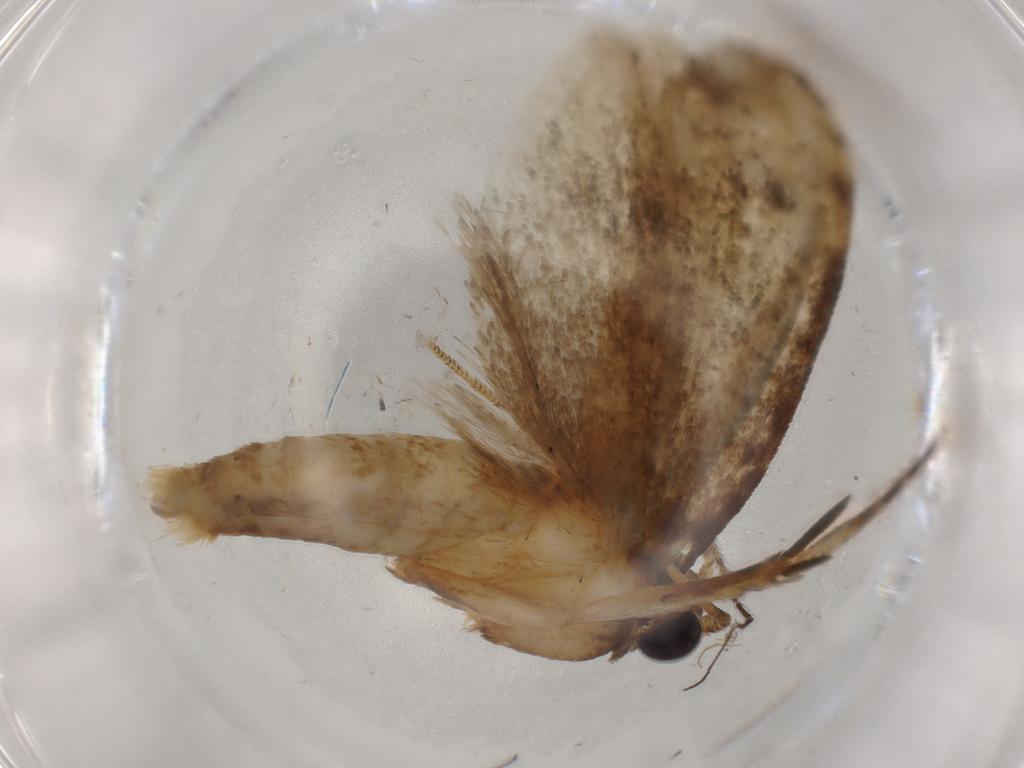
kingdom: Animalia
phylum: Arthropoda
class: Insecta
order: Lepidoptera
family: Tineidae
